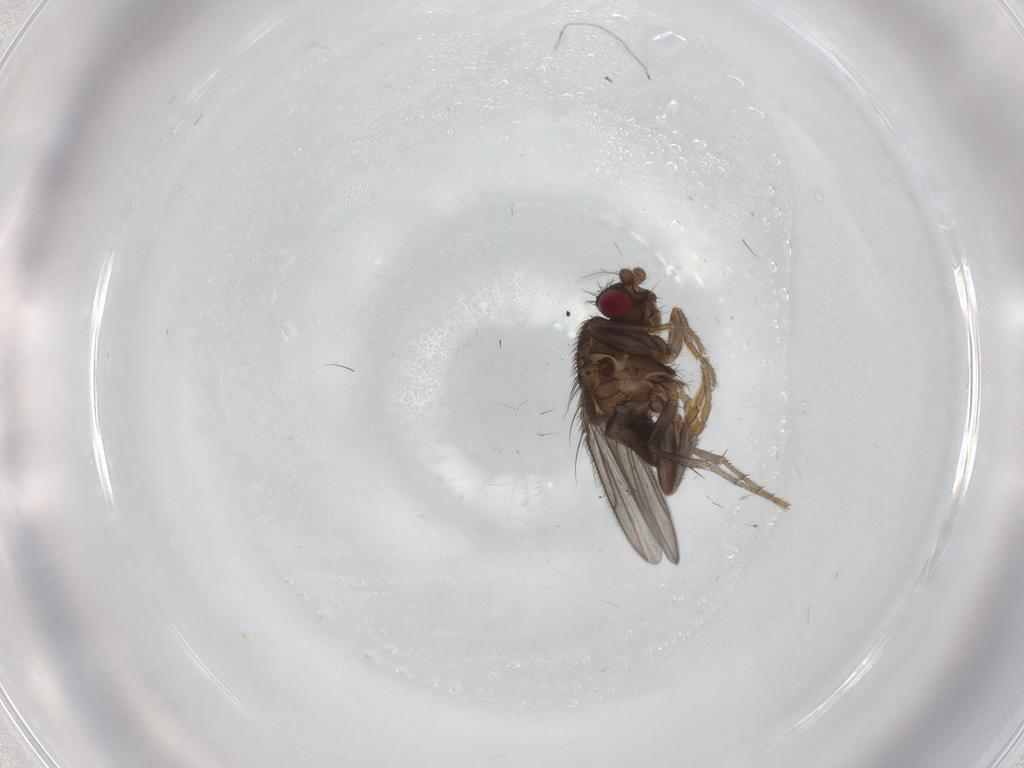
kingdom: Animalia
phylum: Arthropoda
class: Insecta
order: Diptera
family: Sphaeroceridae
